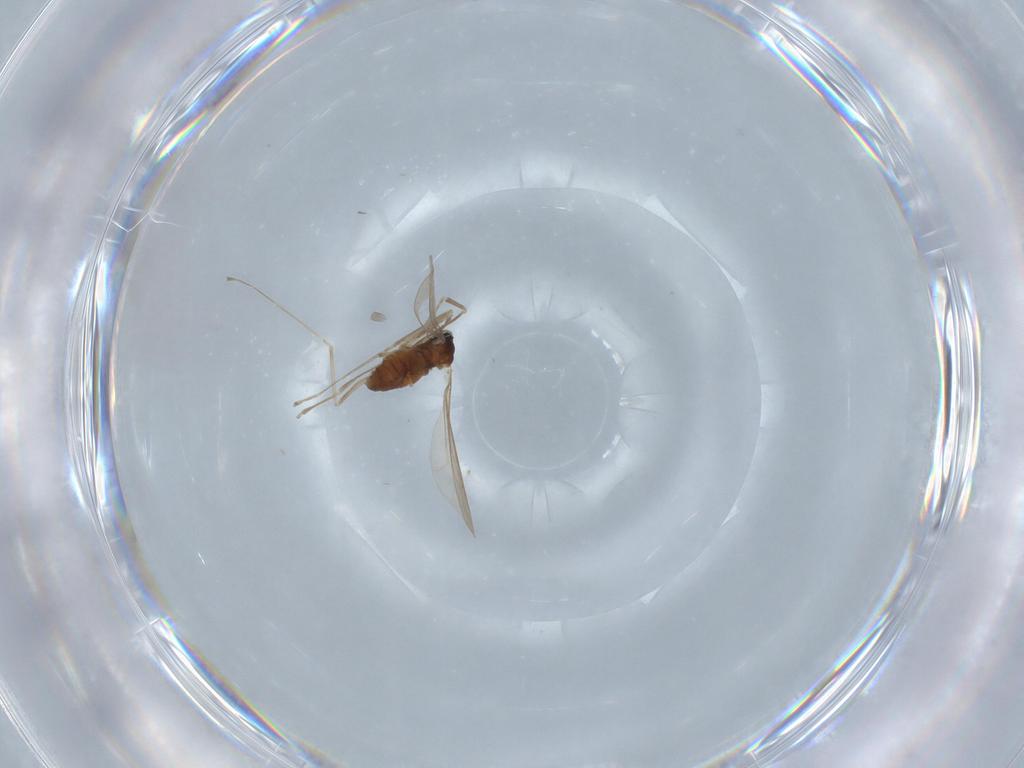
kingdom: Animalia
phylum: Arthropoda
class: Insecta
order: Diptera
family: Cecidomyiidae
